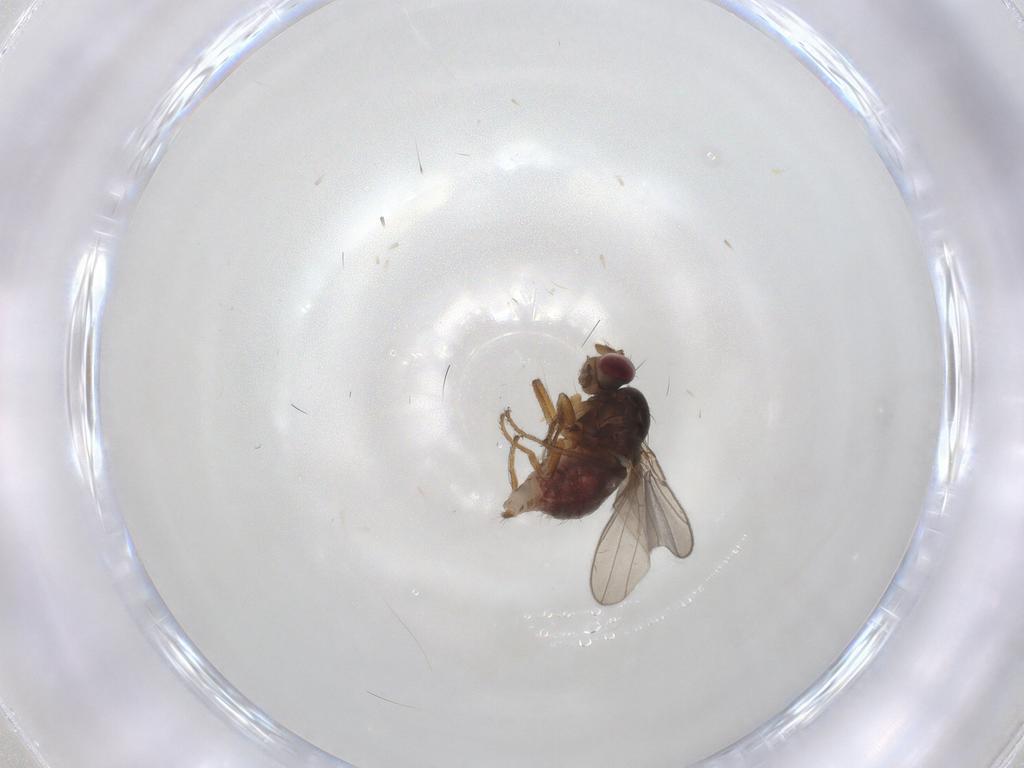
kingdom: Animalia
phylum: Arthropoda
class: Insecta
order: Diptera
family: Ephydridae
